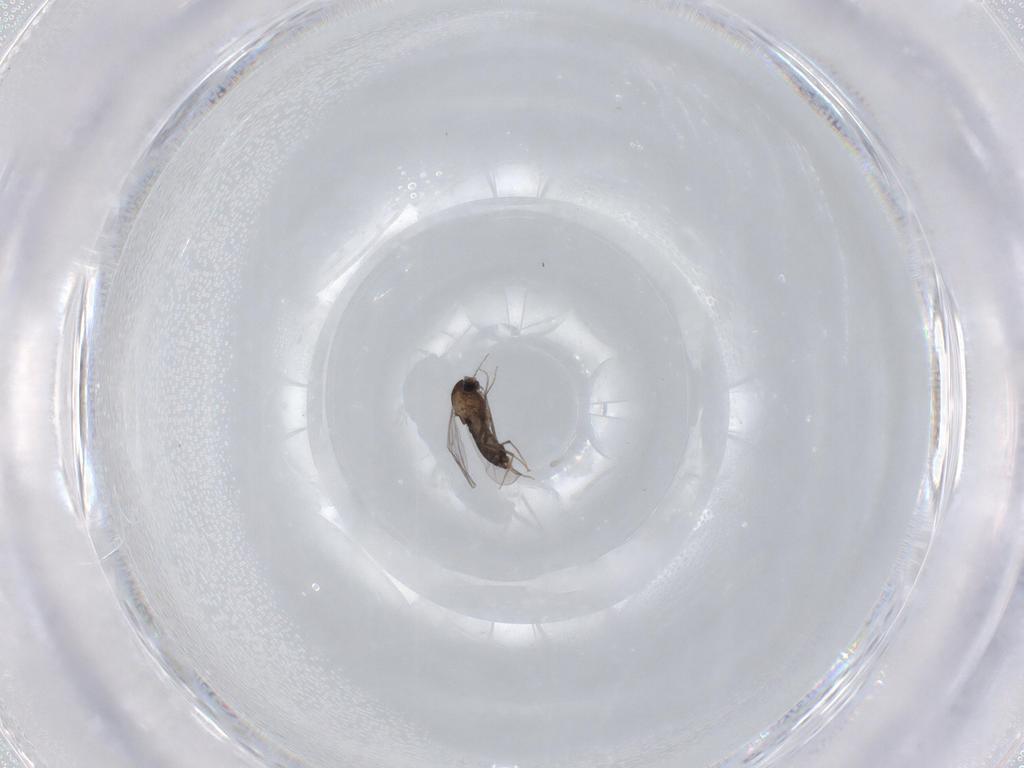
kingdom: Animalia
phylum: Arthropoda
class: Insecta
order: Diptera
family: Chironomidae
